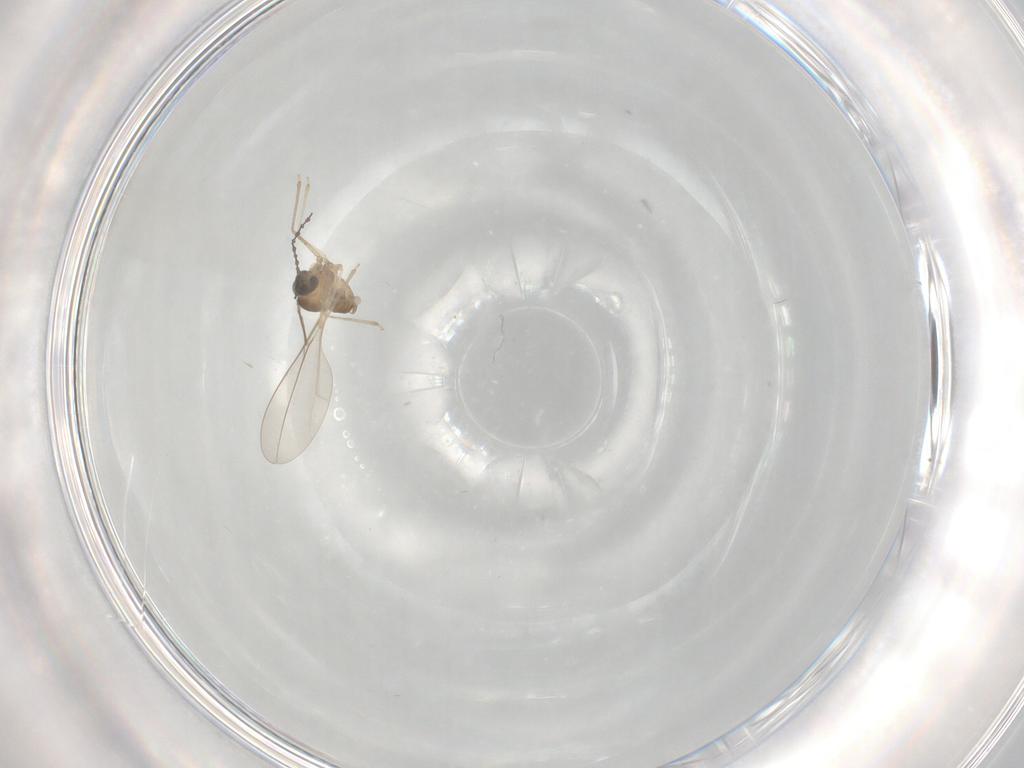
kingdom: Animalia
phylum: Arthropoda
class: Insecta
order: Diptera
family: Cecidomyiidae
